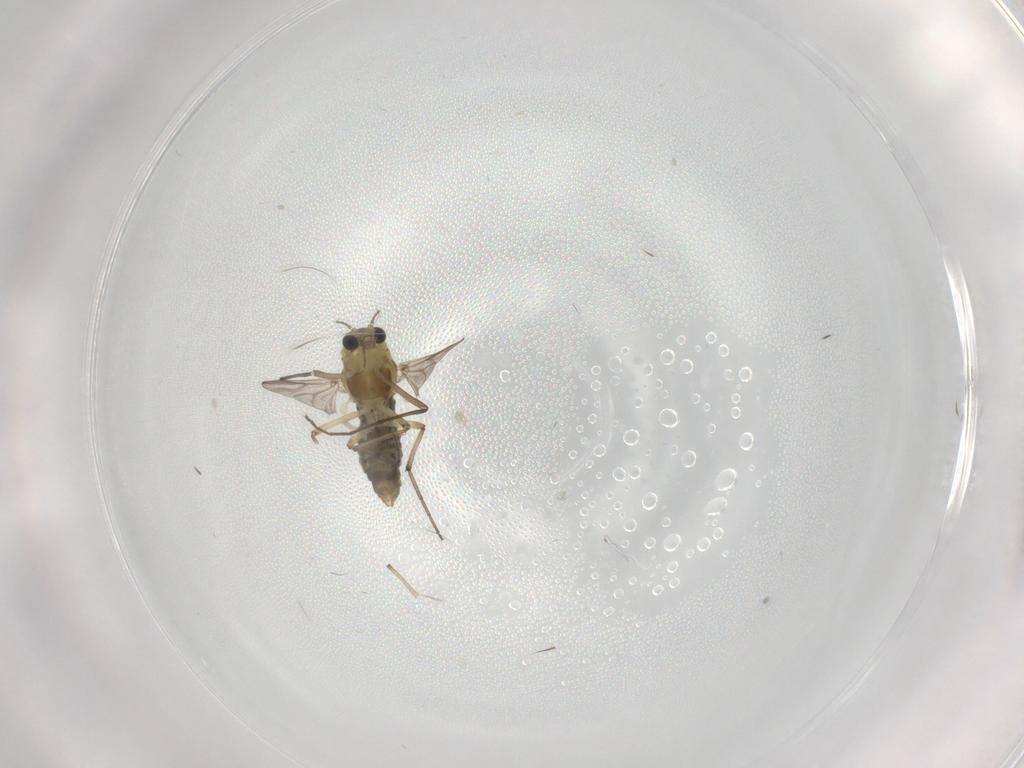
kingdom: Animalia
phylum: Arthropoda
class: Insecta
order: Diptera
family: Chironomidae
